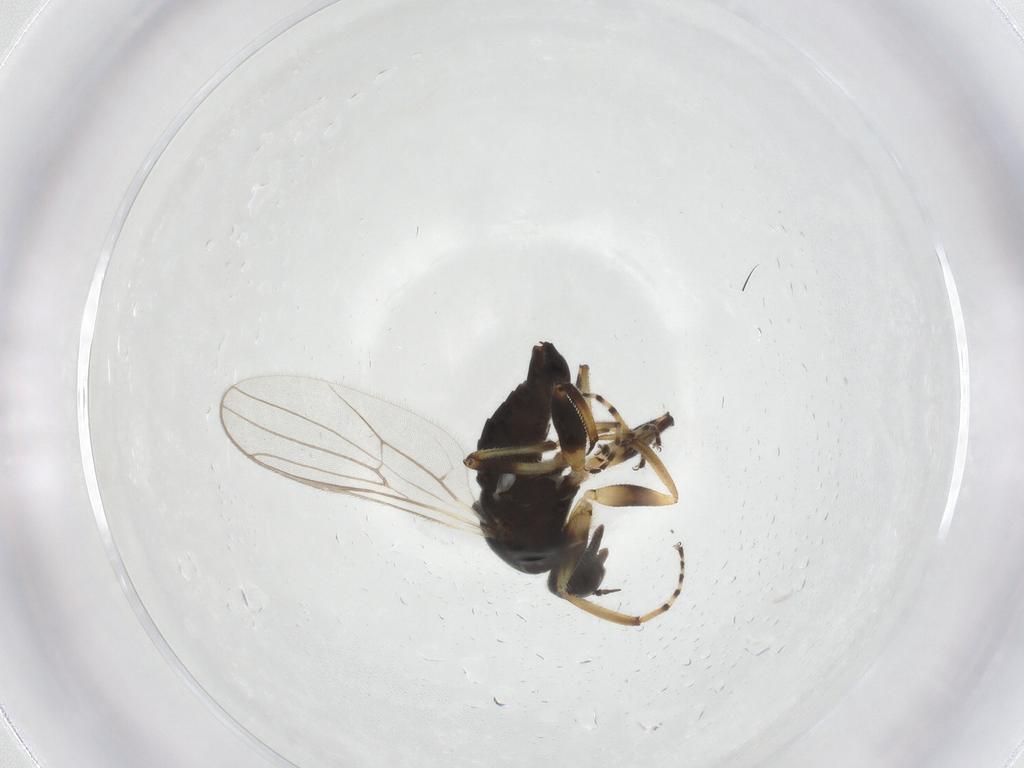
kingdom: Animalia
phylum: Arthropoda
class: Insecta
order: Diptera
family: Hybotidae
